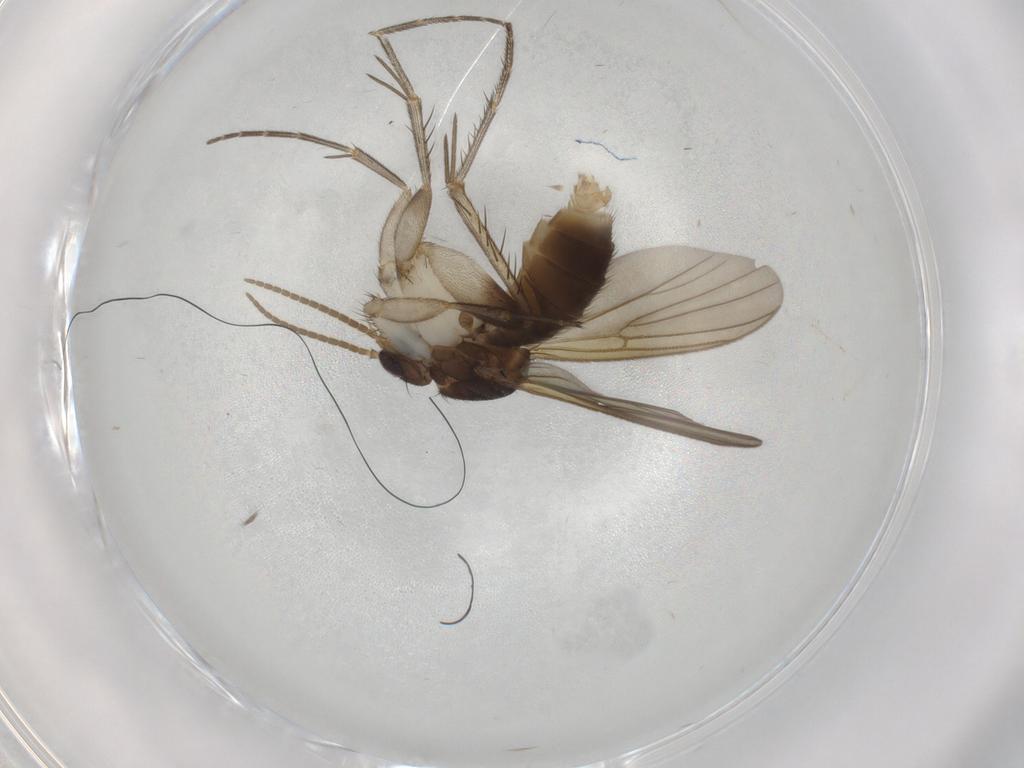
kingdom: Animalia
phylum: Arthropoda
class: Insecta
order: Diptera
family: Mycetophilidae
